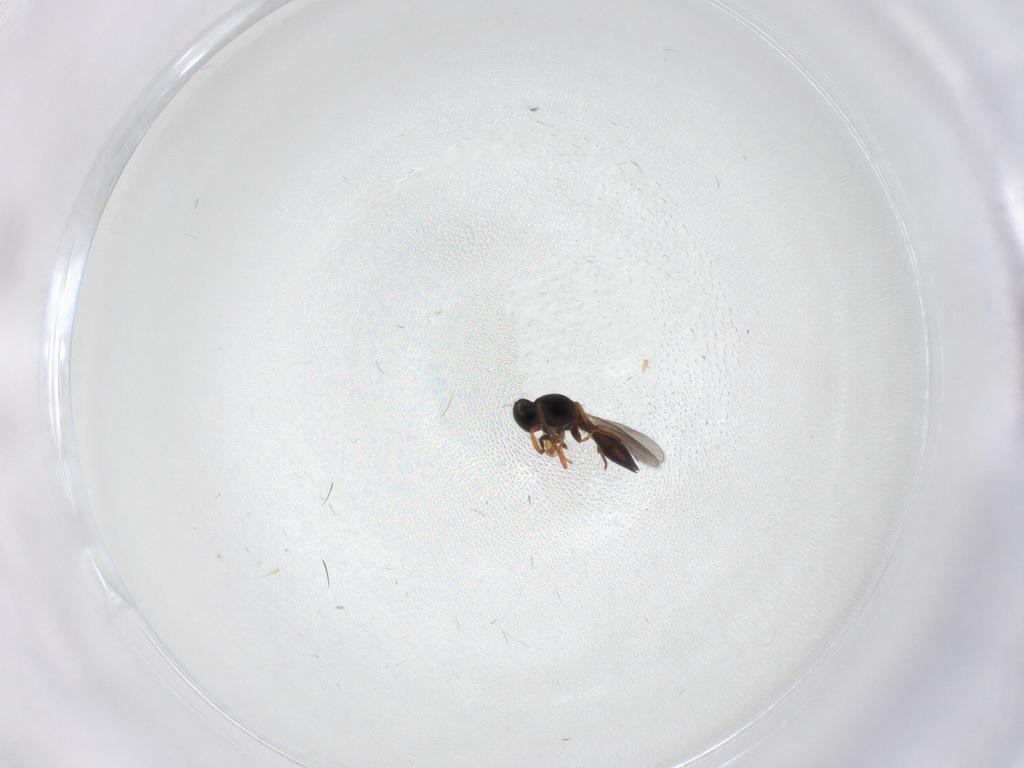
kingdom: Animalia
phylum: Arthropoda
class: Insecta
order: Hymenoptera
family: Platygastridae
